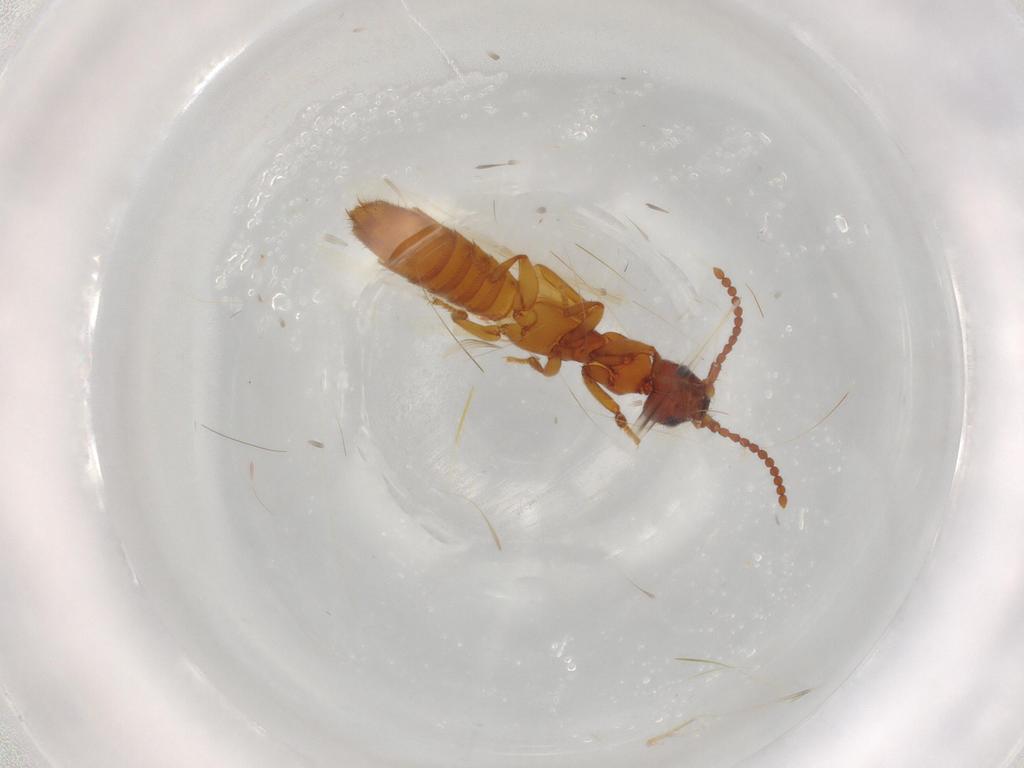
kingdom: Animalia
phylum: Arthropoda
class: Insecta
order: Coleoptera
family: Staphylinidae
